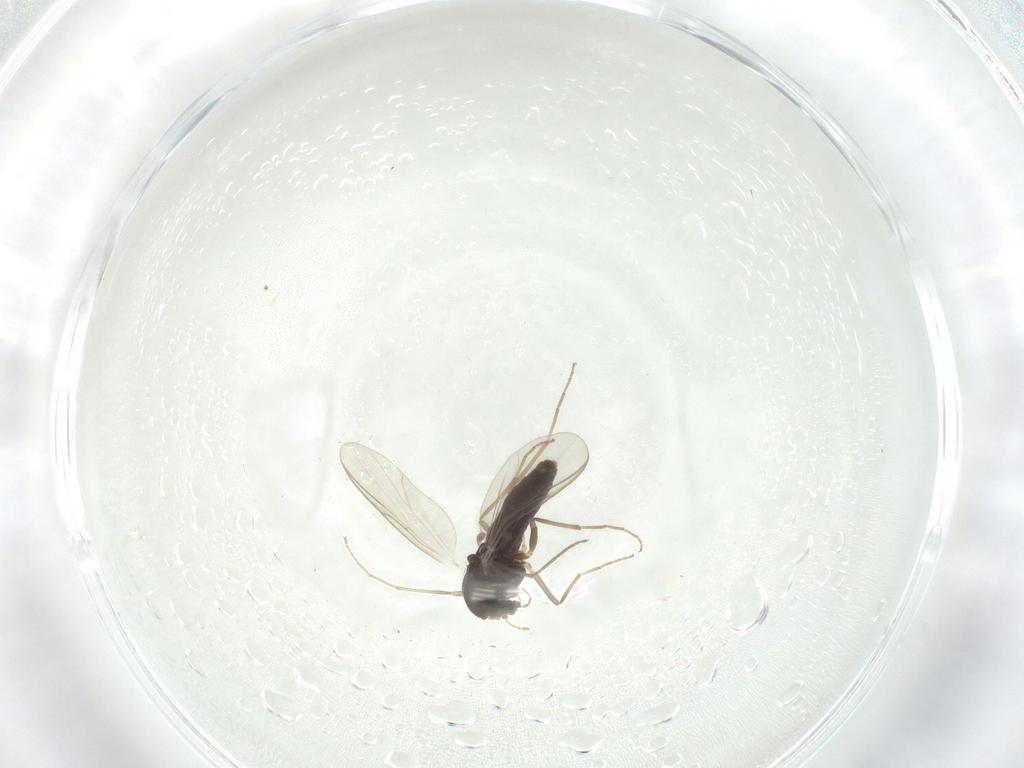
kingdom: Animalia
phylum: Arthropoda
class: Insecta
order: Diptera
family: Chironomidae
